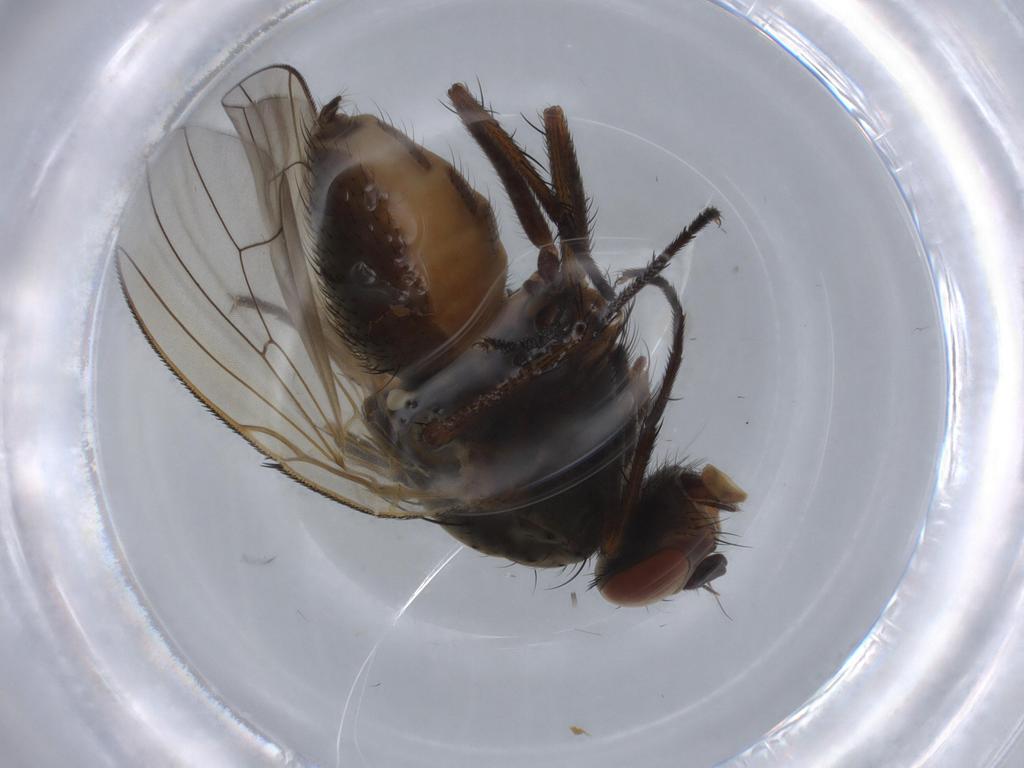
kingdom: Animalia
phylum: Arthropoda
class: Insecta
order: Diptera
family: Anthomyiidae
